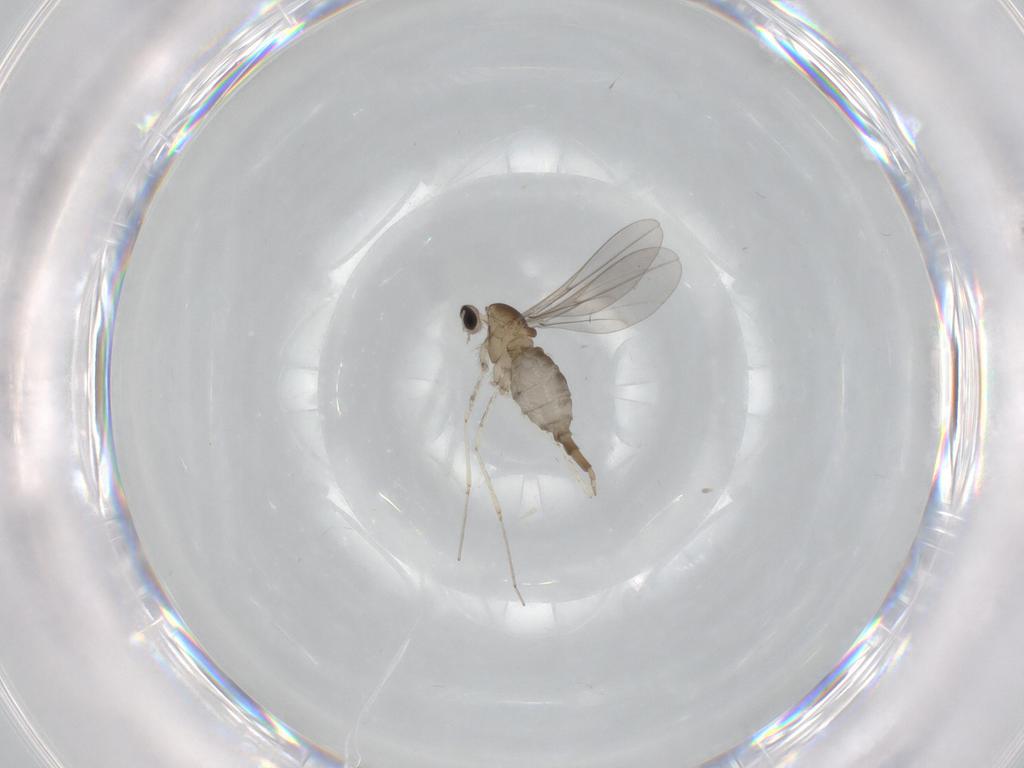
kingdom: Animalia
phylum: Arthropoda
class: Insecta
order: Diptera
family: Cecidomyiidae
